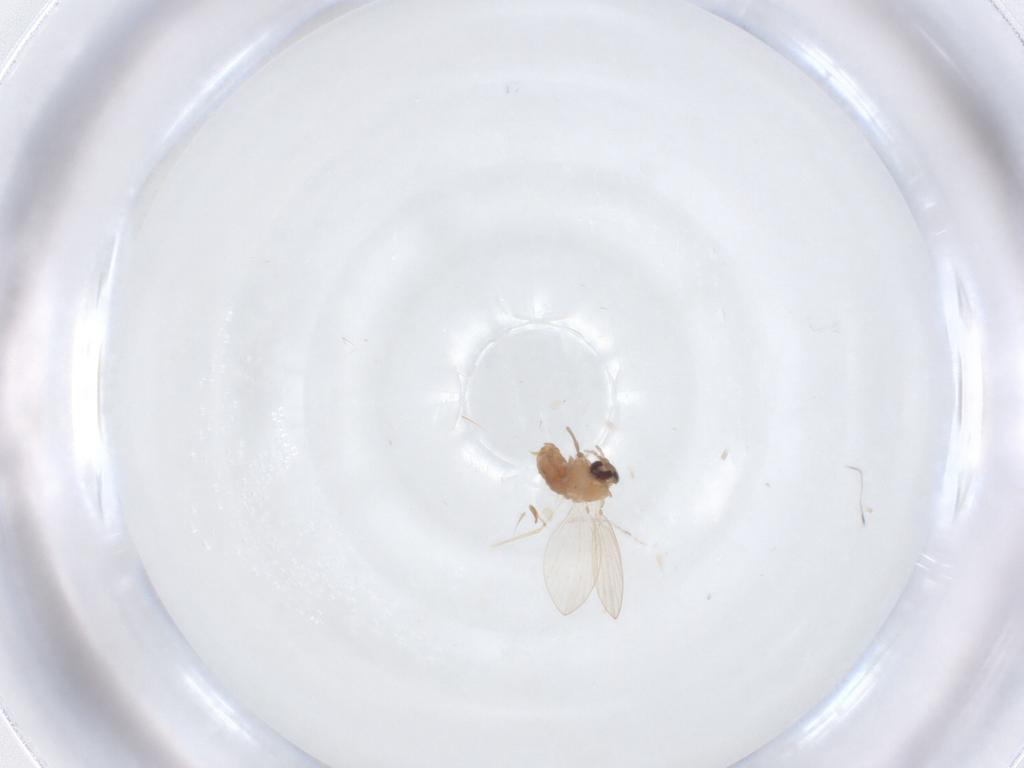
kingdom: Animalia
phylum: Arthropoda
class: Insecta
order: Diptera
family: Psychodidae
